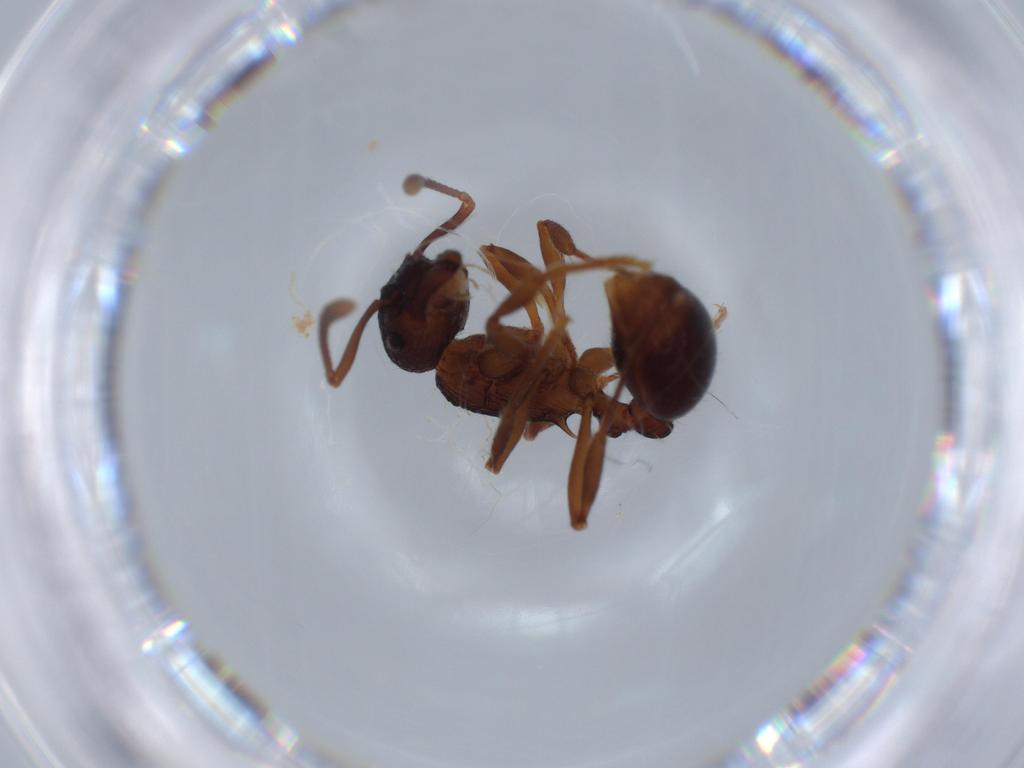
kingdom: Animalia
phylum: Arthropoda
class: Insecta
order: Hymenoptera
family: Formicidae
